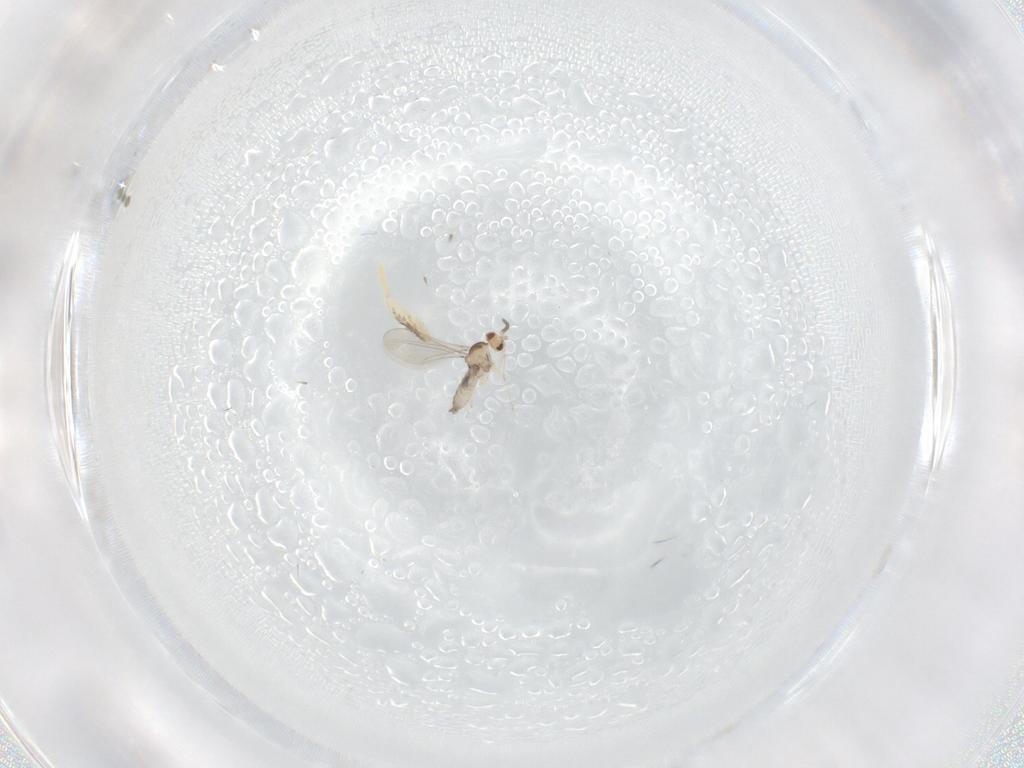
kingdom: Animalia
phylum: Arthropoda
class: Insecta
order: Diptera
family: Cecidomyiidae
